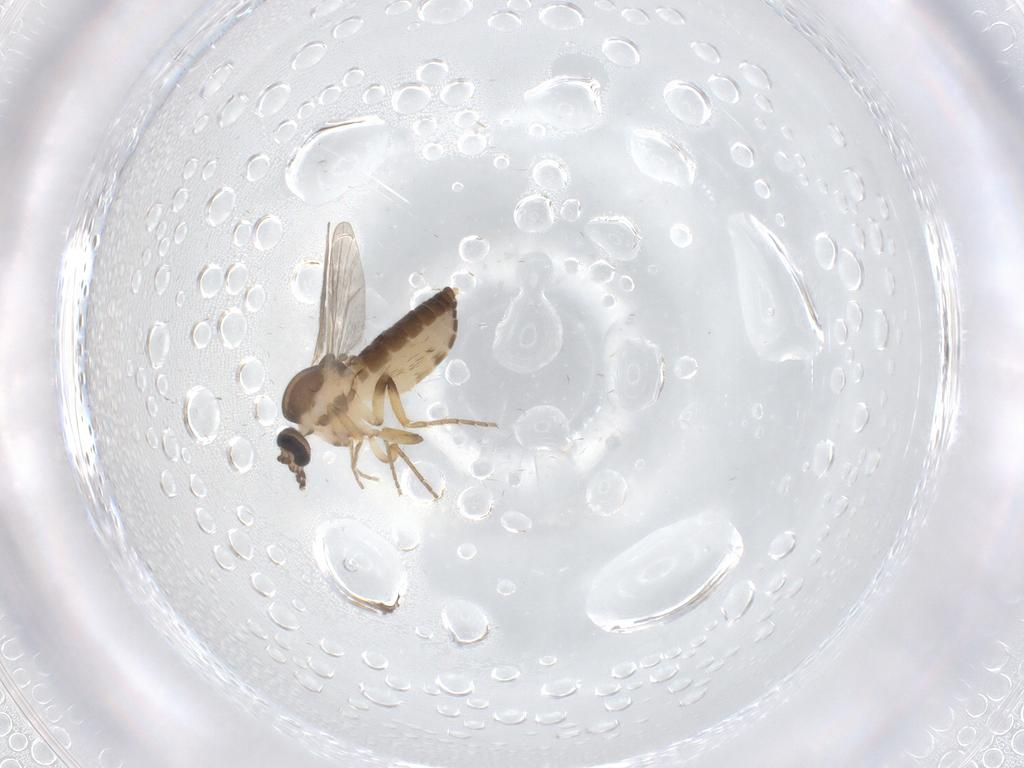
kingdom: Animalia
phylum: Arthropoda
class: Insecta
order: Diptera
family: Ceratopogonidae
